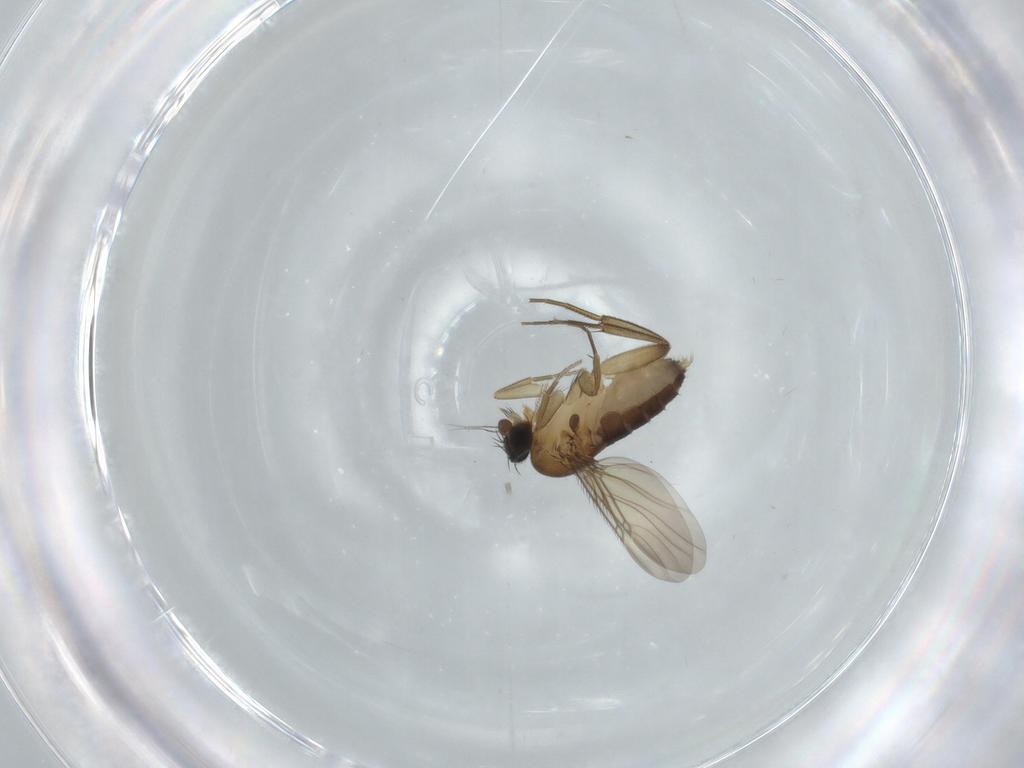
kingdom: Animalia
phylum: Arthropoda
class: Insecta
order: Diptera
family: Phoridae
